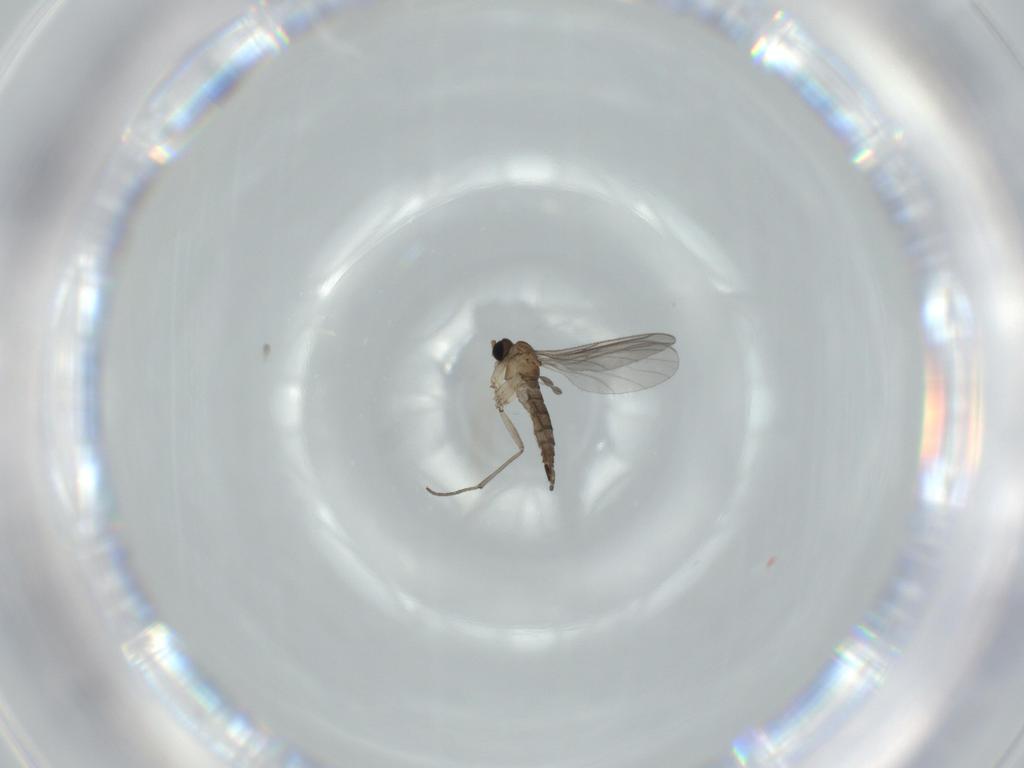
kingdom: Animalia
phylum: Arthropoda
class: Insecta
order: Diptera
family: Sciaridae
